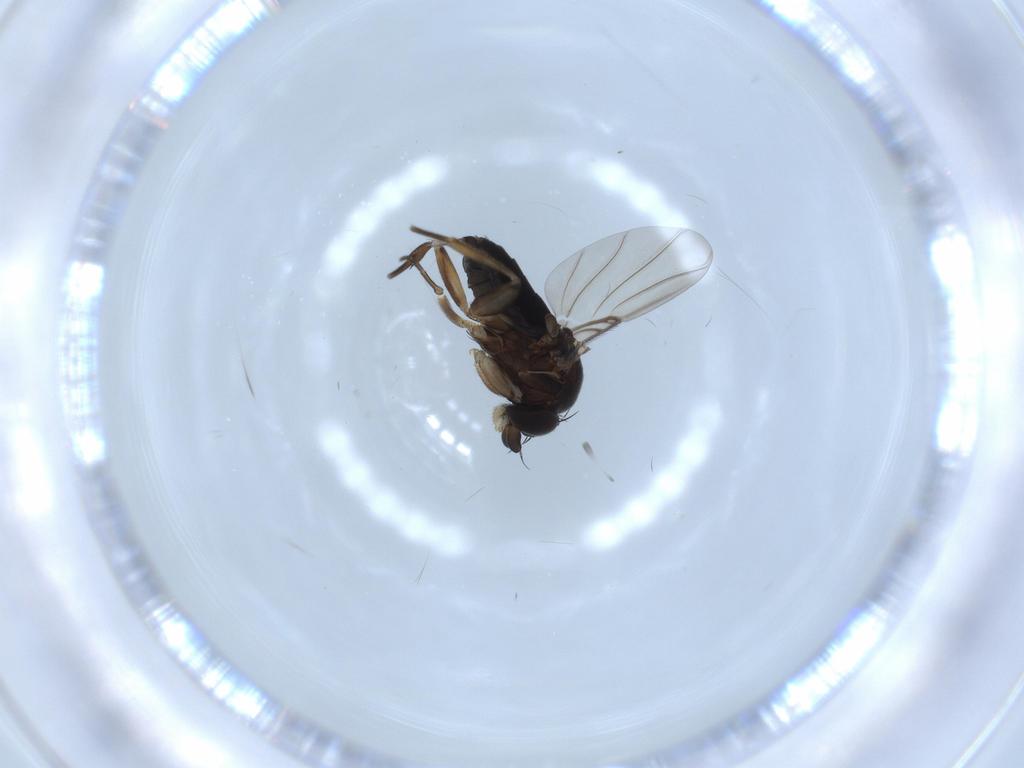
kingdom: Animalia
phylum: Arthropoda
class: Insecta
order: Diptera
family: Phoridae
